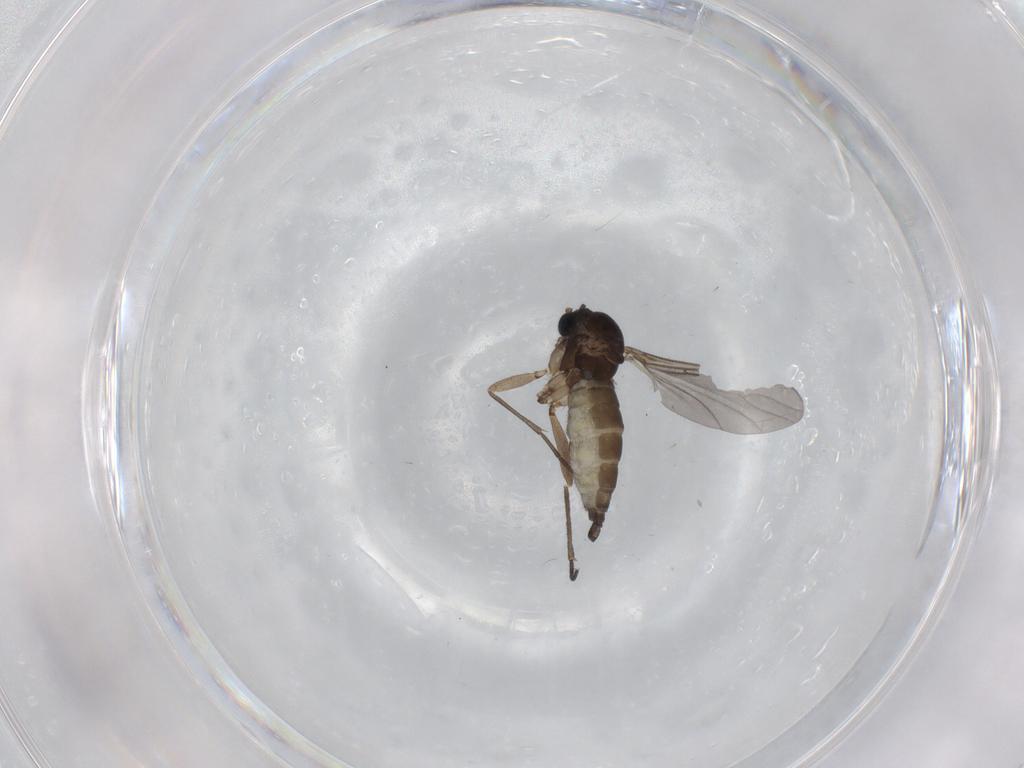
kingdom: Animalia
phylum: Arthropoda
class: Insecta
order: Diptera
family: Sciaridae
